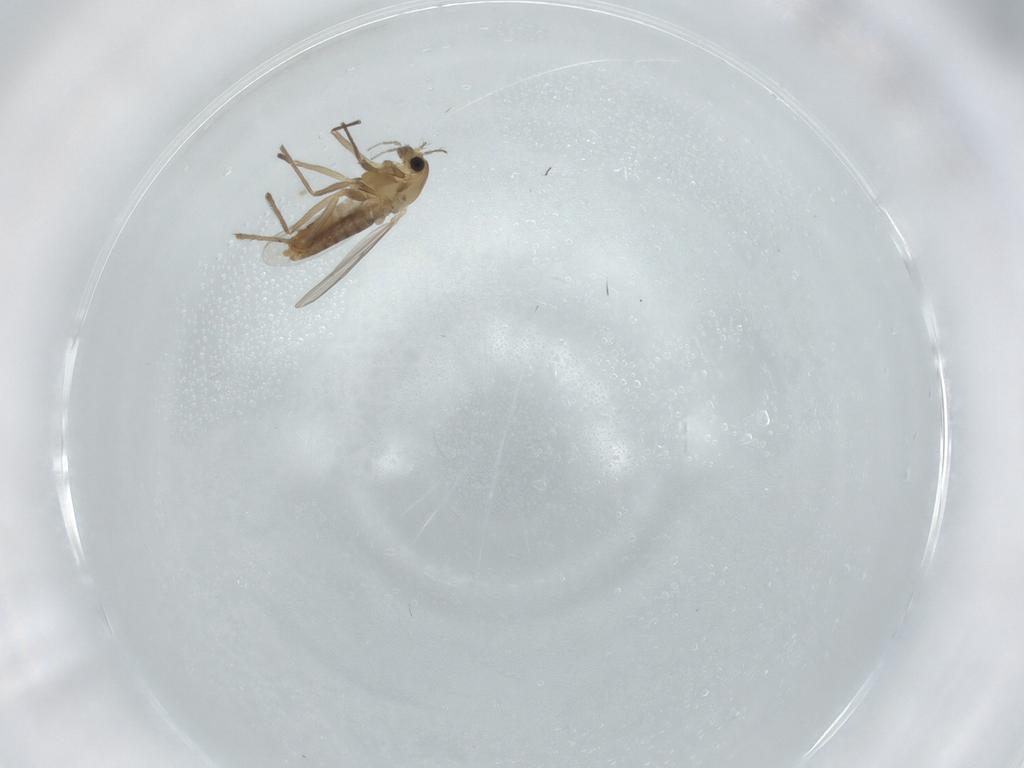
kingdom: Animalia
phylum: Arthropoda
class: Insecta
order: Diptera
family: Chironomidae
